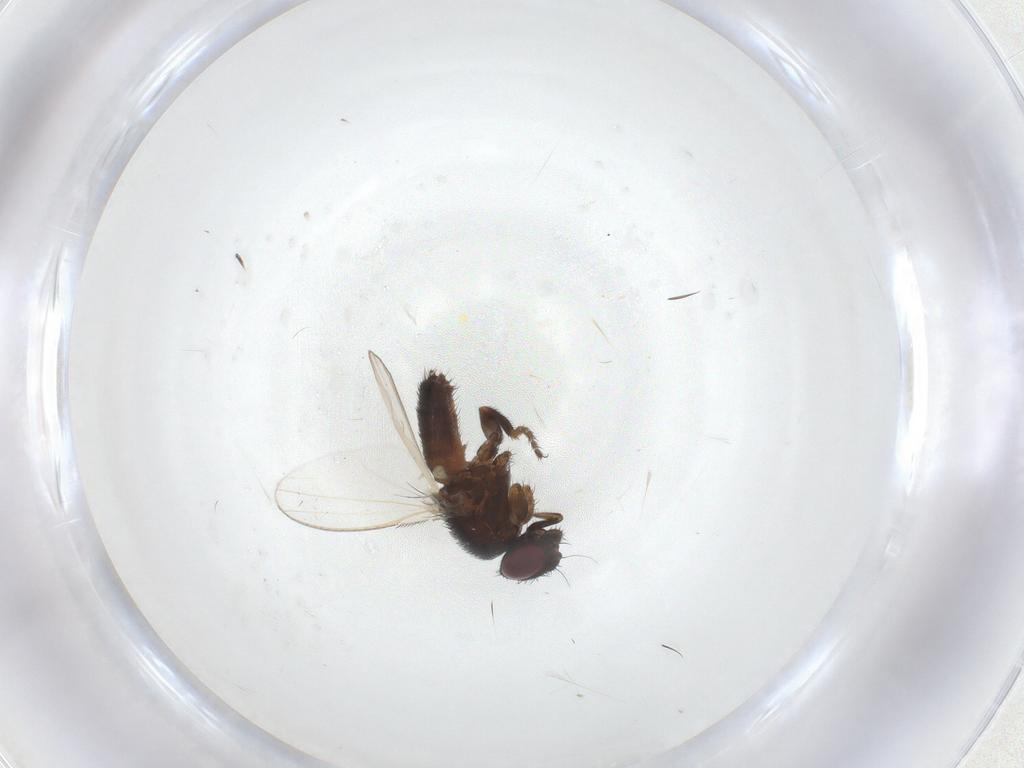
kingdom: Animalia
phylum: Arthropoda
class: Insecta
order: Diptera
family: Milichiidae
